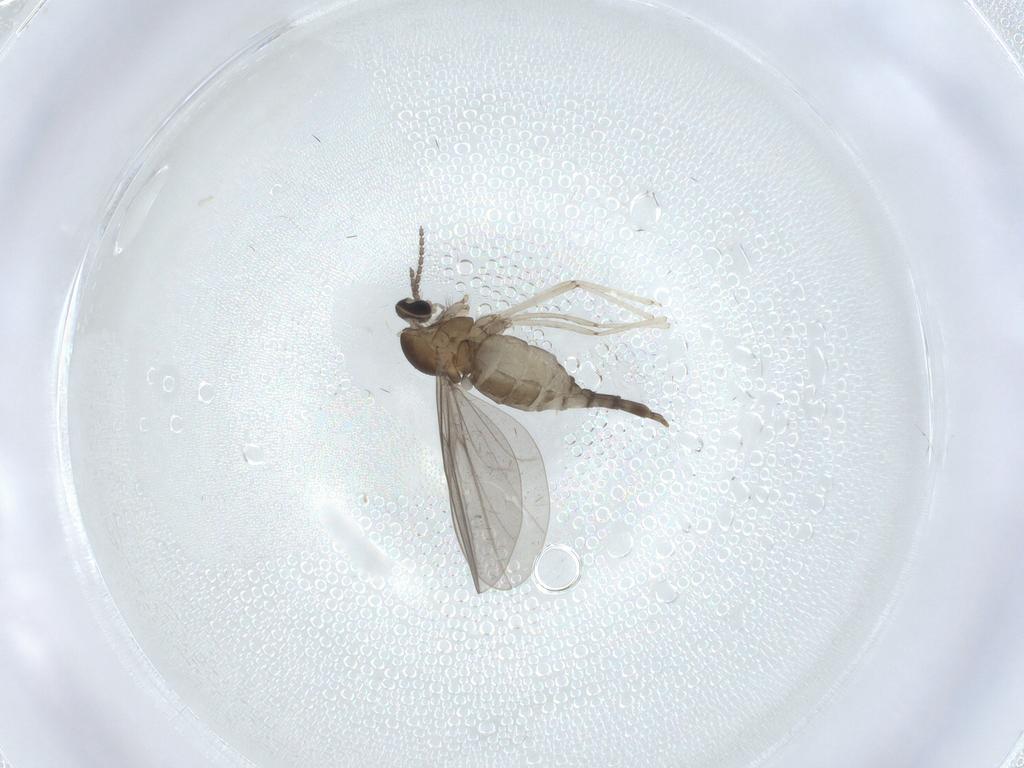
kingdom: Animalia
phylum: Arthropoda
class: Insecta
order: Diptera
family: Cecidomyiidae
